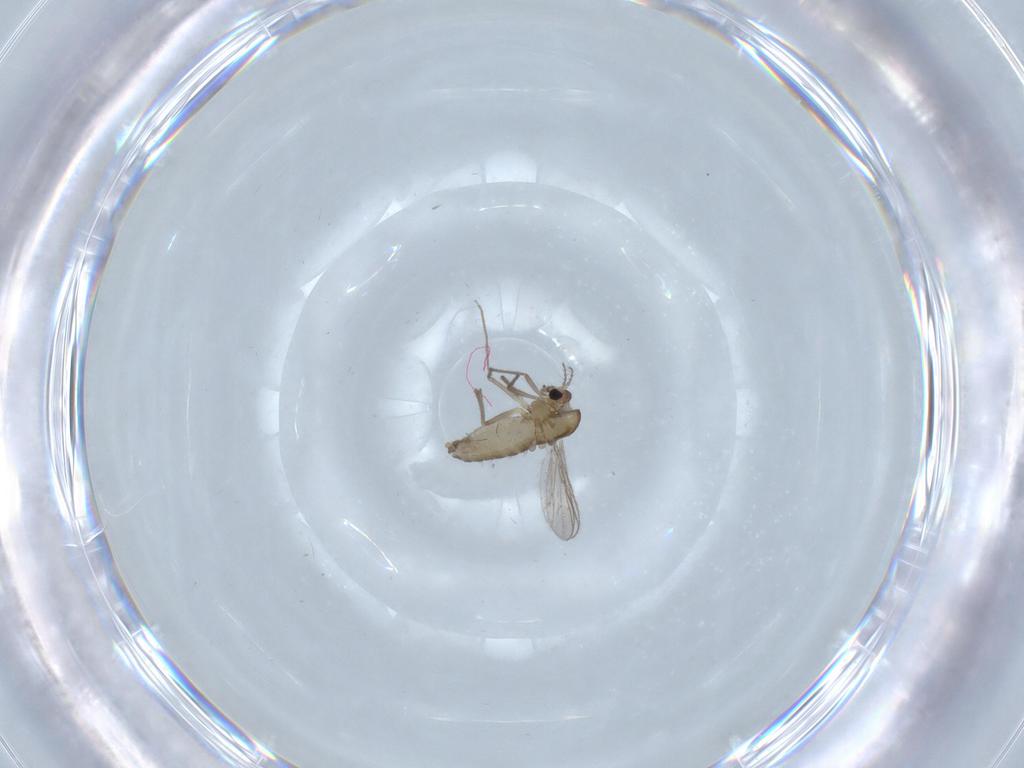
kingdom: Animalia
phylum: Arthropoda
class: Insecta
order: Diptera
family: Chironomidae
